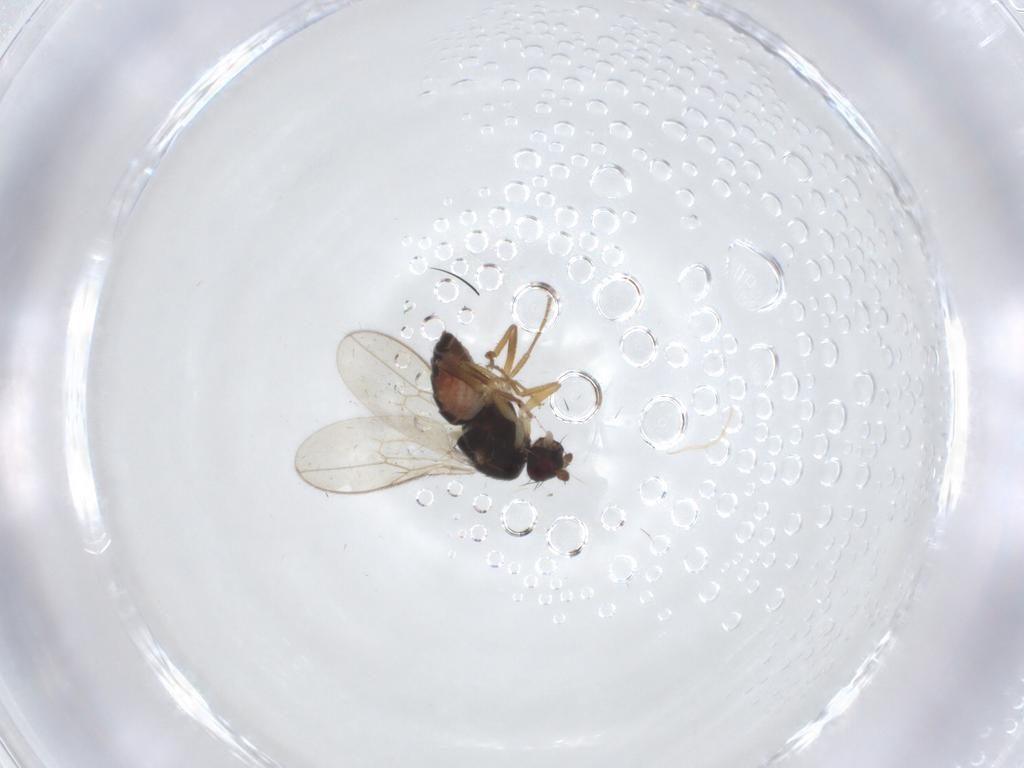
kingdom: Animalia
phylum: Arthropoda
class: Insecta
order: Diptera
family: Sphaeroceridae
